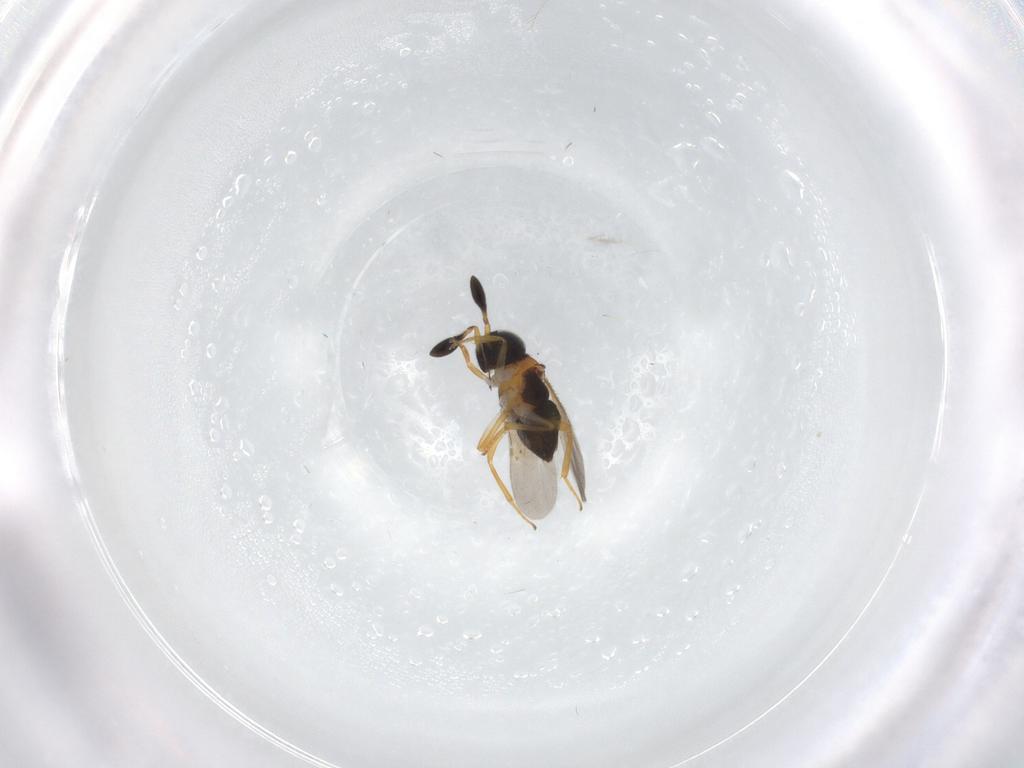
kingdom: Animalia
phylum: Arthropoda
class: Insecta
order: Hymenoptera
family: Encyrtidae
